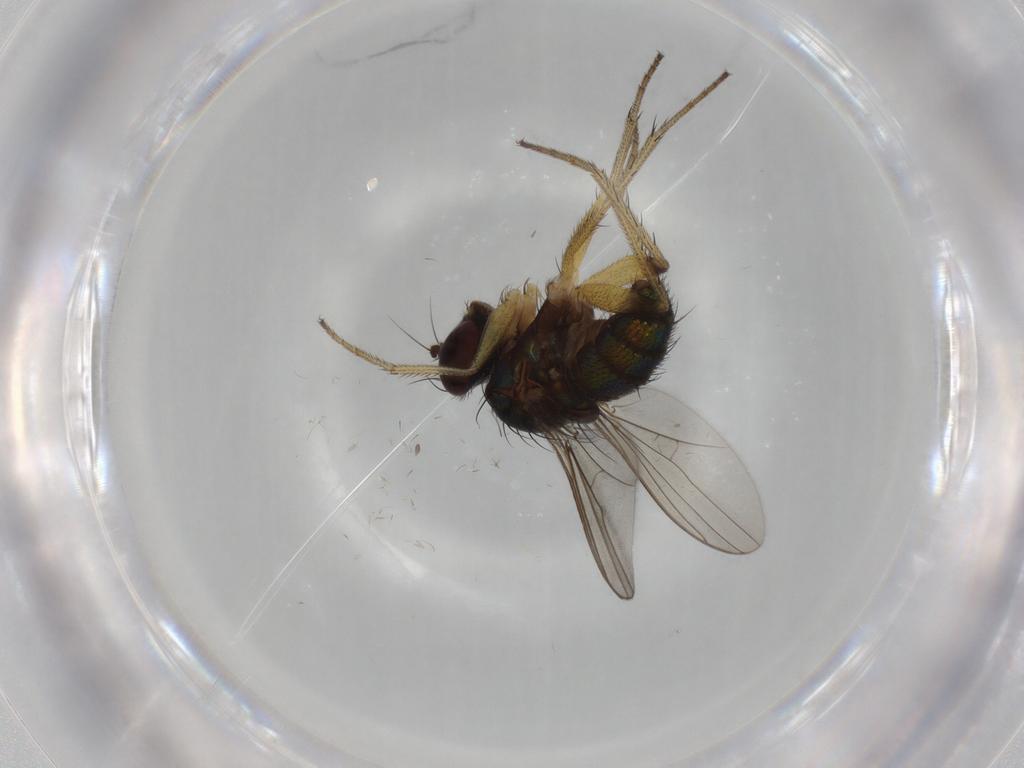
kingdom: Animalia
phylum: Arthropoda
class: Insecta
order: Diptera
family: Dolichopodidae
